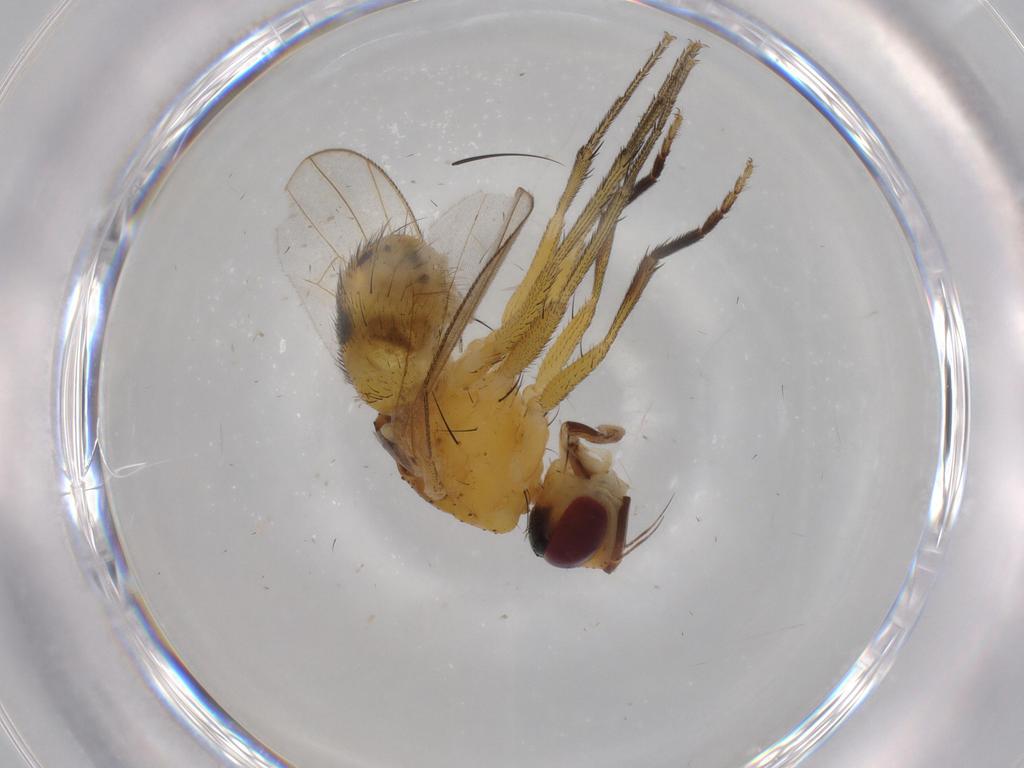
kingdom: Animalia
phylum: Arthropoda
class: Insecta
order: Diptera
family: Muscidae
